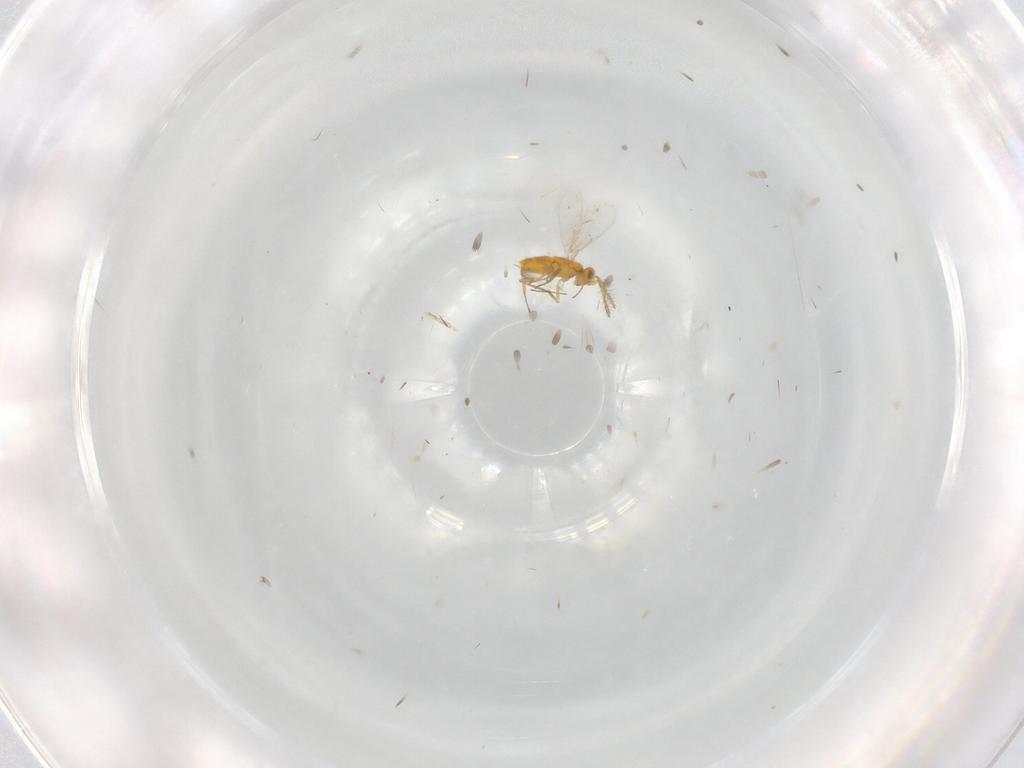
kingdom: Animalia
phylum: Arthropoda
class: Insecta
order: Hymenoptera
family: Aphelinidae
